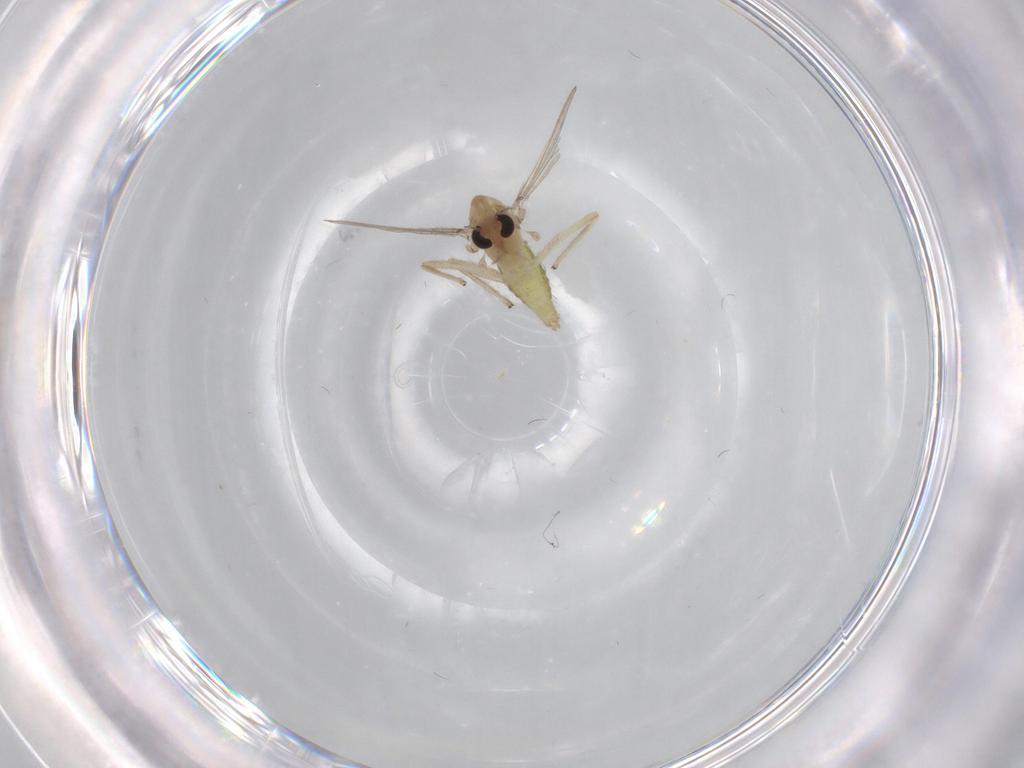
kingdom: Animalia
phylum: Arthropoda
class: Insecta
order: Diptera
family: Chironomidae
